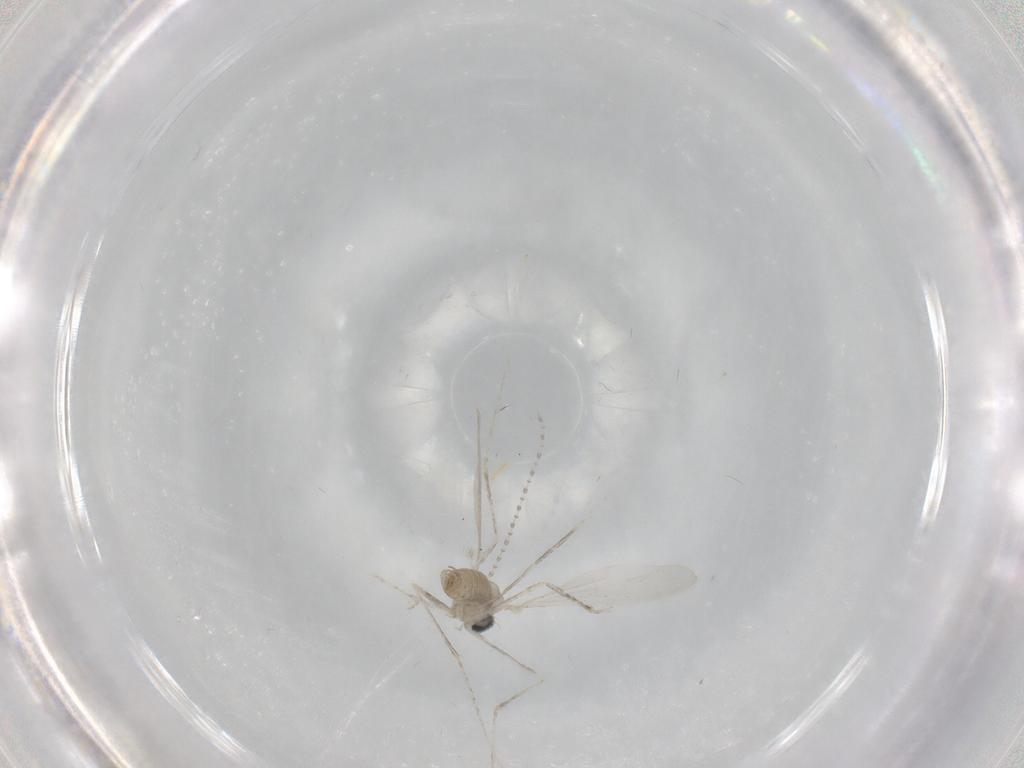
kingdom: Animalia
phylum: Arthropoda
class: Insecta
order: Diptera
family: Cecidomyiidae
